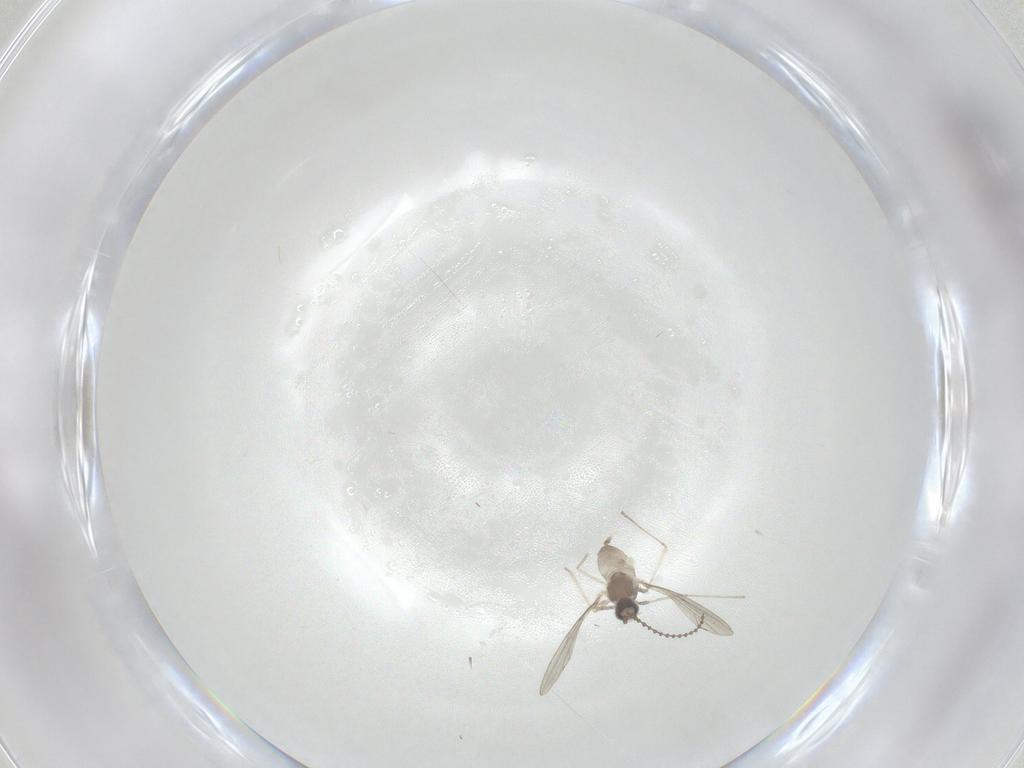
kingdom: Animalia
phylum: Arthropoda
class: Insecta
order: Diptera
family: Cecidomyiidae
